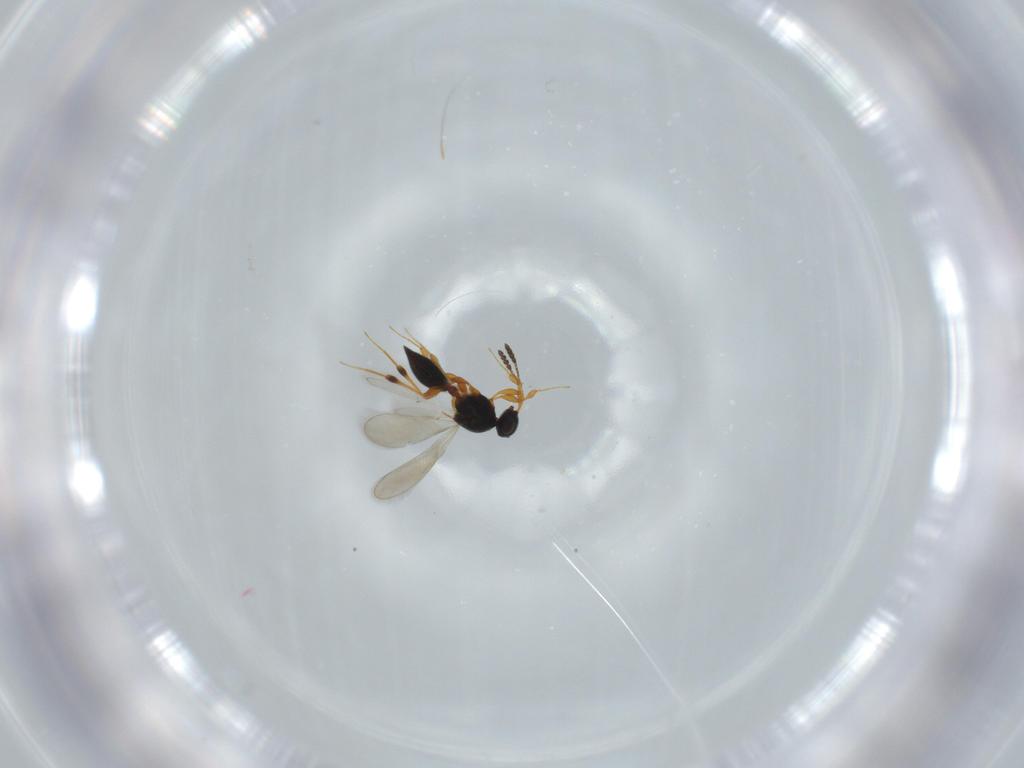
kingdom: Animalia
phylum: Arthropoda
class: Insecta
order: Hymenoptera
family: Platygastridae
